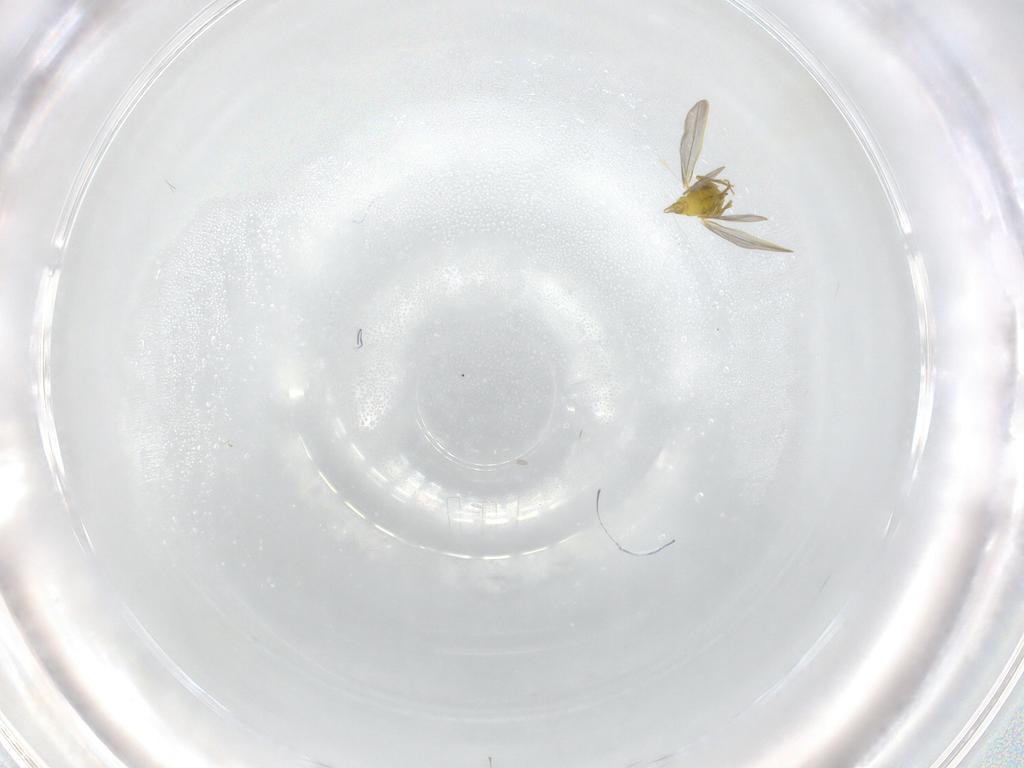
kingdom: Animalia
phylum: Arthropoda
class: Insecta
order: Hemiptera
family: Aleyrodidae
